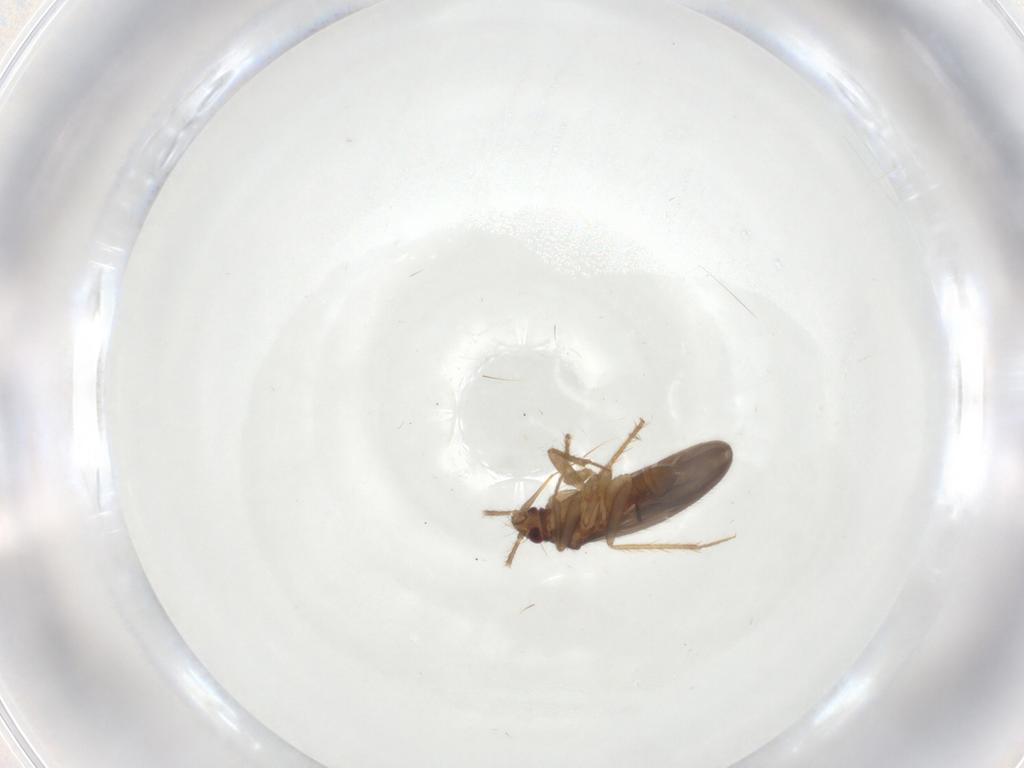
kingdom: Animalia
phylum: Arthropoda
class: Insecta
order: Hemiptera
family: Ceratocombidae
